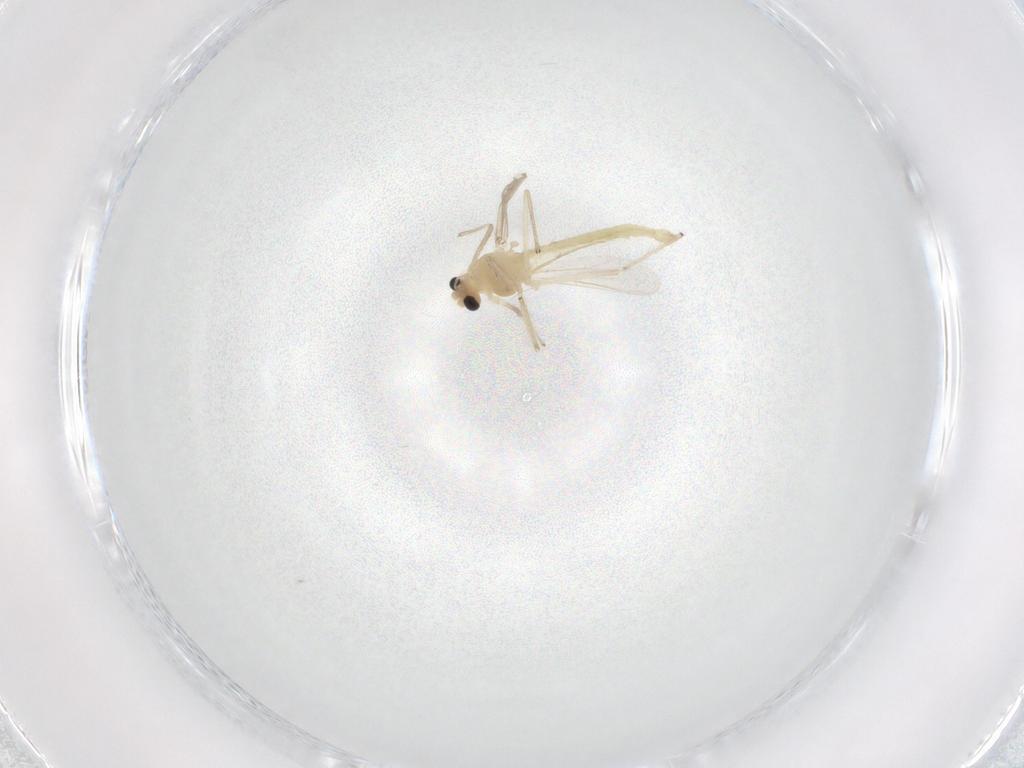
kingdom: Animalia
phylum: Arthropoda
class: Insecta
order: Diptera
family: Chironomidae
